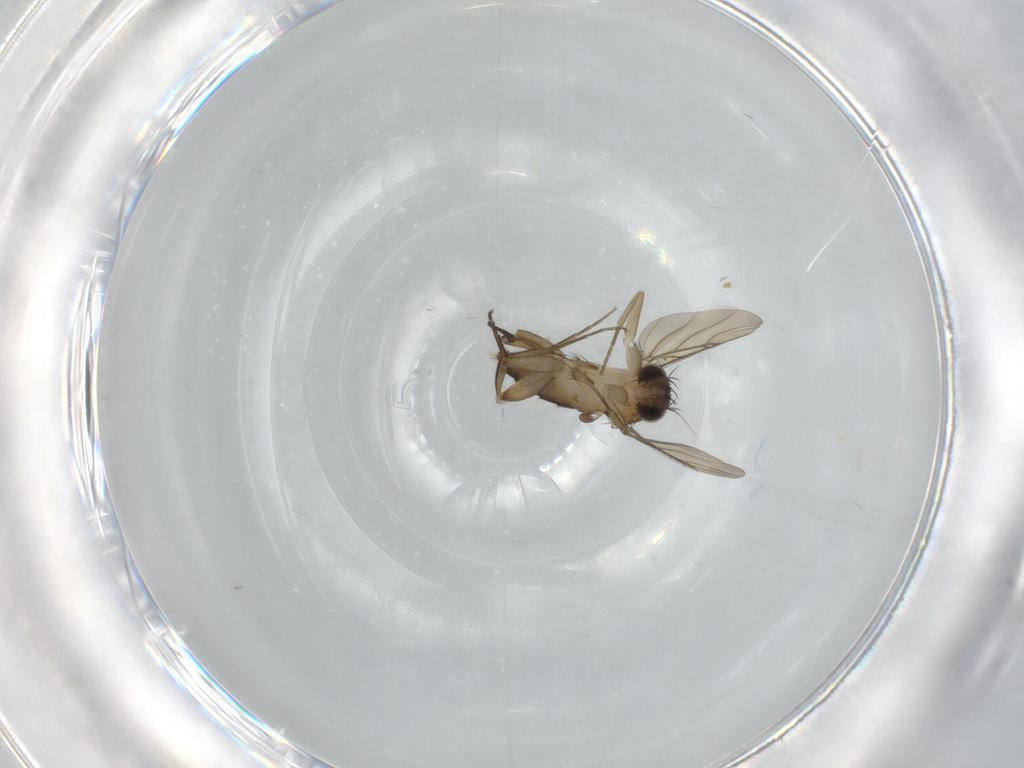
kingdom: Animalia
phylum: Arthropoda
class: Insecta
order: Diptera
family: Phoridae
